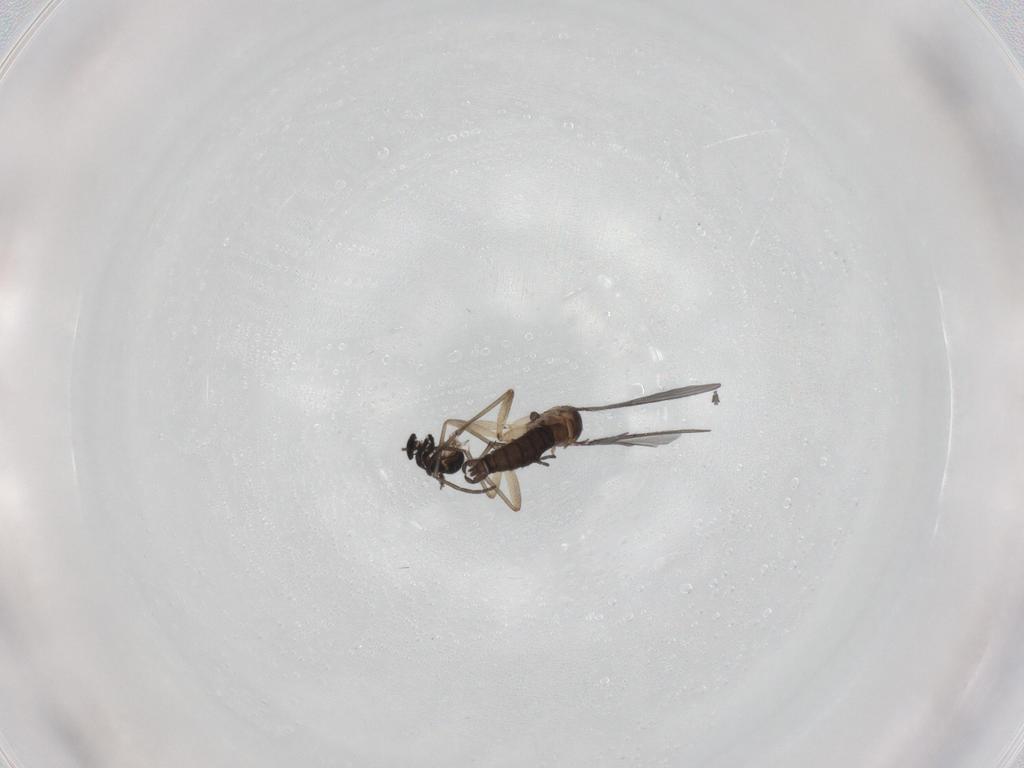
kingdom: Animalia
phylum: Arthropoda
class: Insecta
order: Diptera
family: Sciaridae
